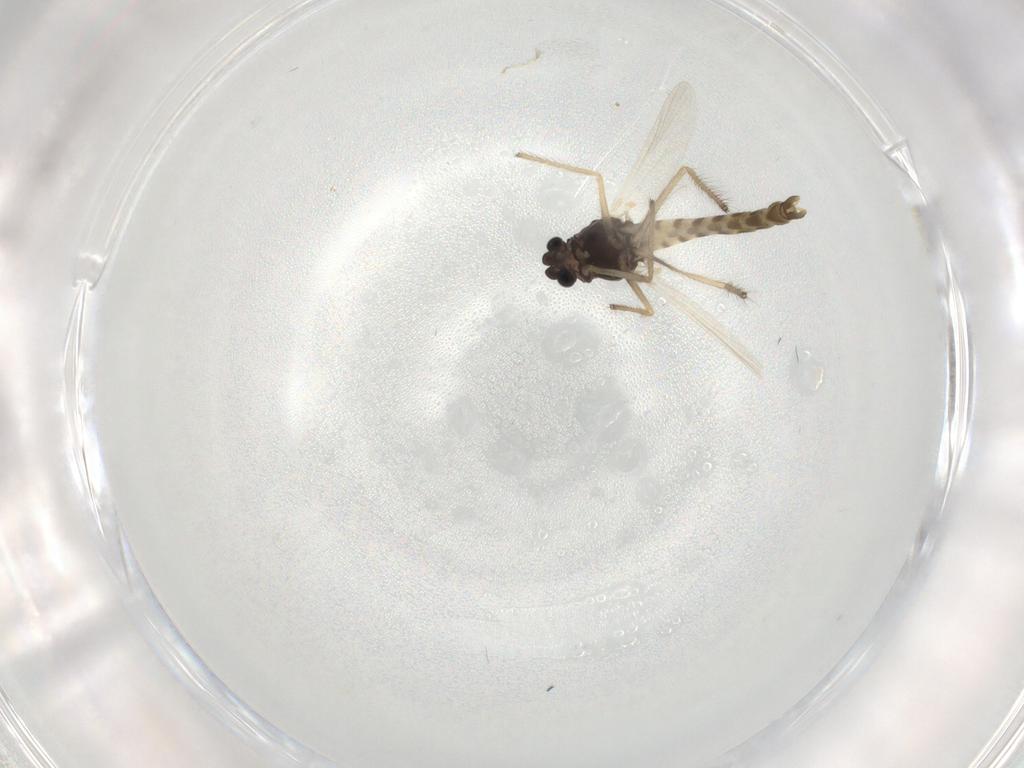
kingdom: Animalia
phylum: Arthropoda
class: Insecta
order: Diptera
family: Chironomidae
